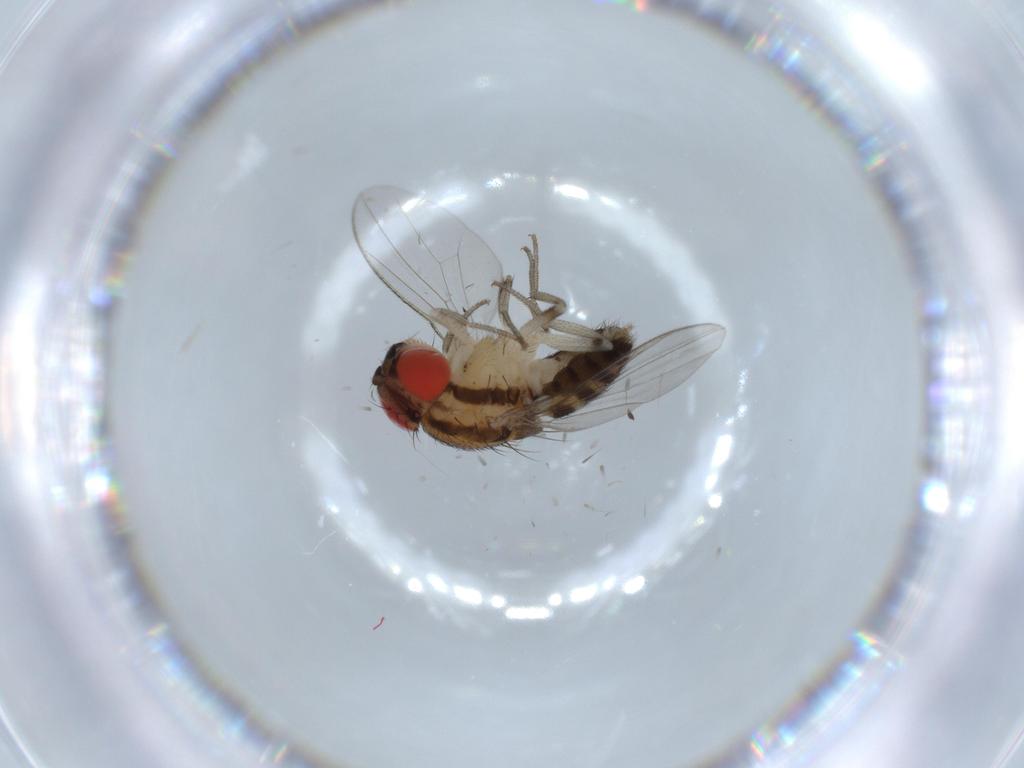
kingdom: Animalia
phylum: Arthropoda
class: Insecta
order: Diptera
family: Drosophilidae
